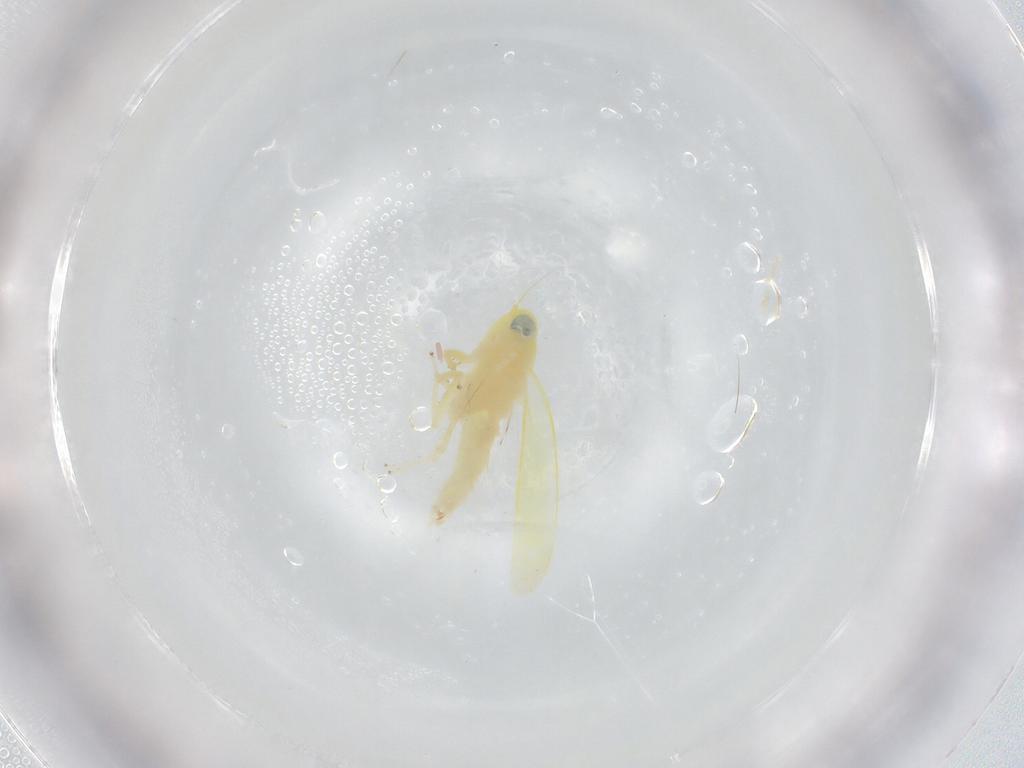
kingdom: Animalia
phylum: Arthropoda
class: Insecta
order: Hemiptera
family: Cicadellidae
